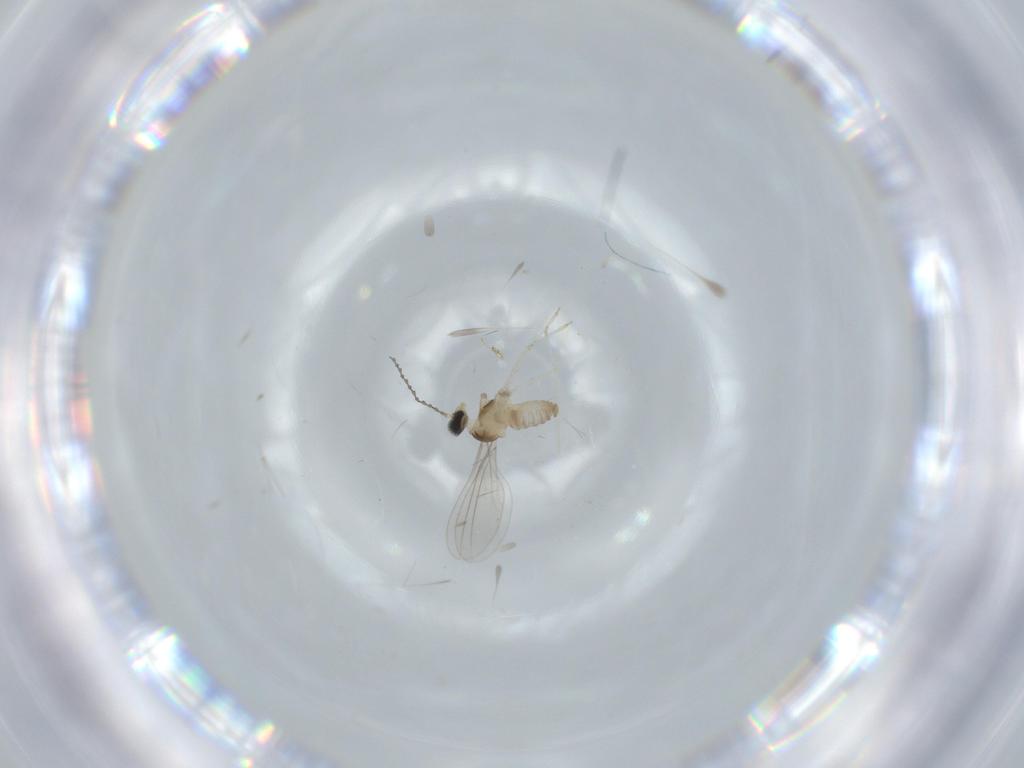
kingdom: Animalia
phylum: Arthropoda
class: Insecta
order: Diptera
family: Cecidomyiidae
